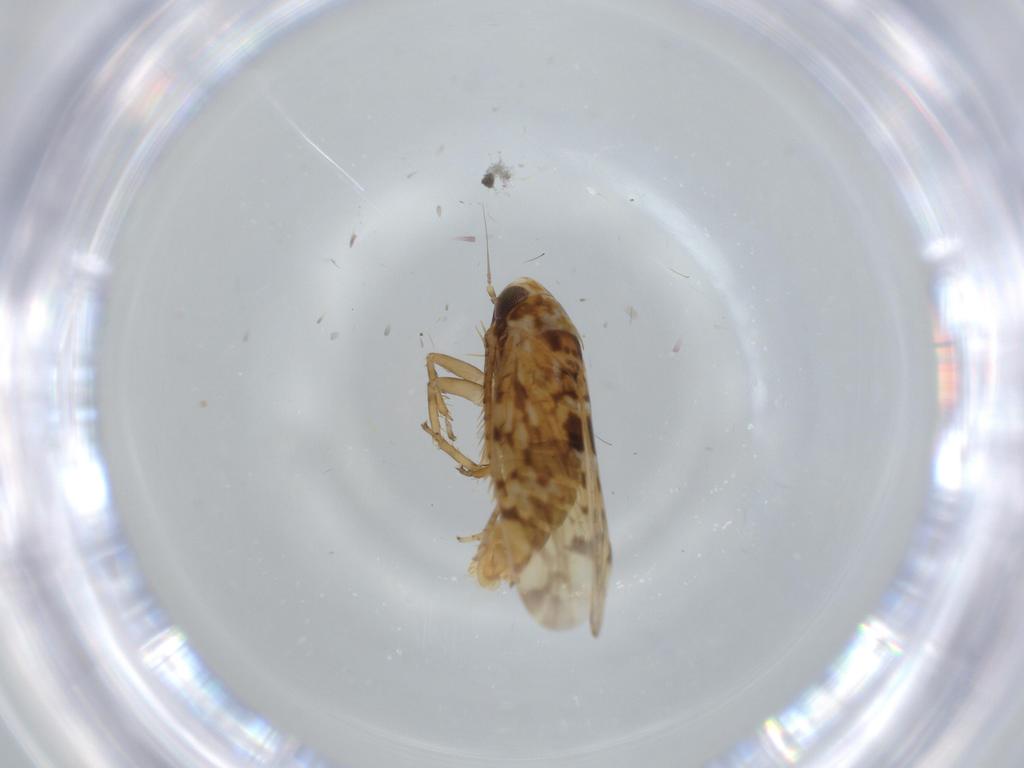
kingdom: Animalia
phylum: Arthropoda
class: Insecta
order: Hemiptera
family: Cicadellidae
